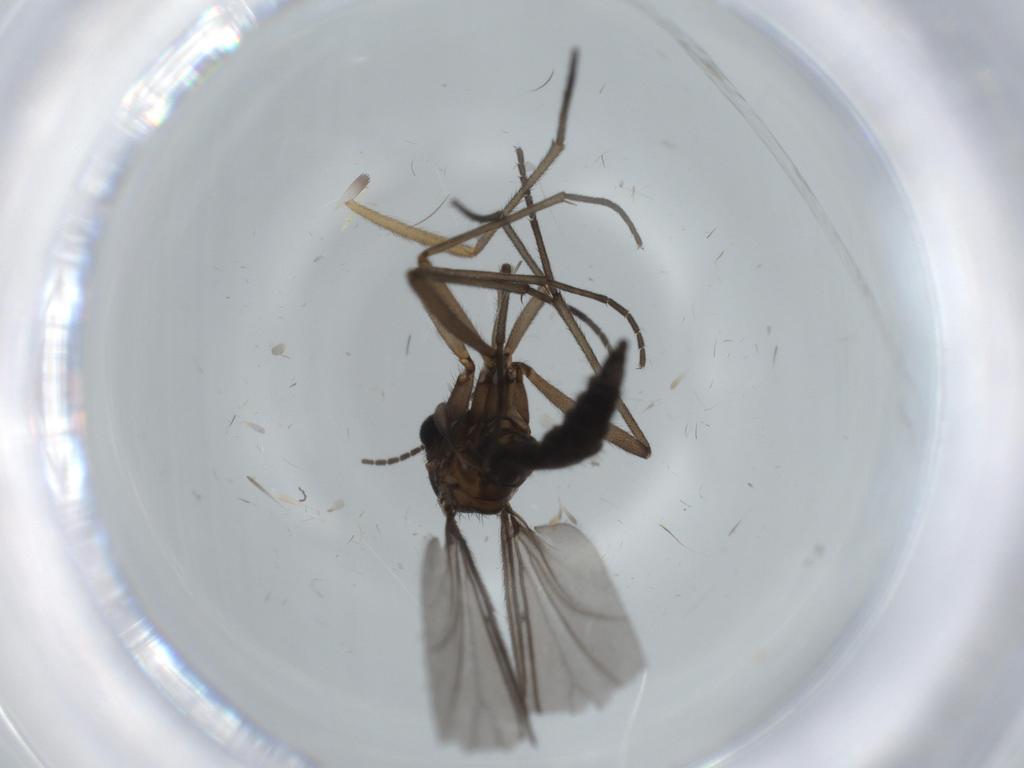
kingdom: Animalia
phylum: Arthropoda
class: Insecta
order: Diptera
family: Sciaridae
